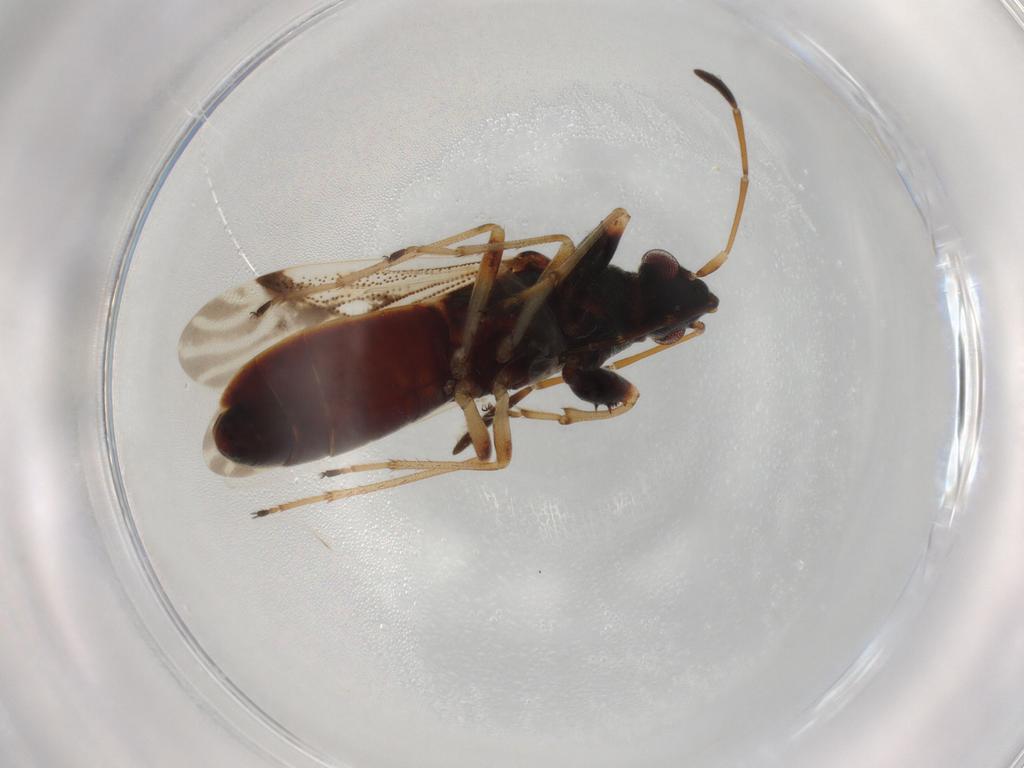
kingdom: Animalia
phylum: Arthropoda
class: Insecta
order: Hemiptera
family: Rhyparochromidae
